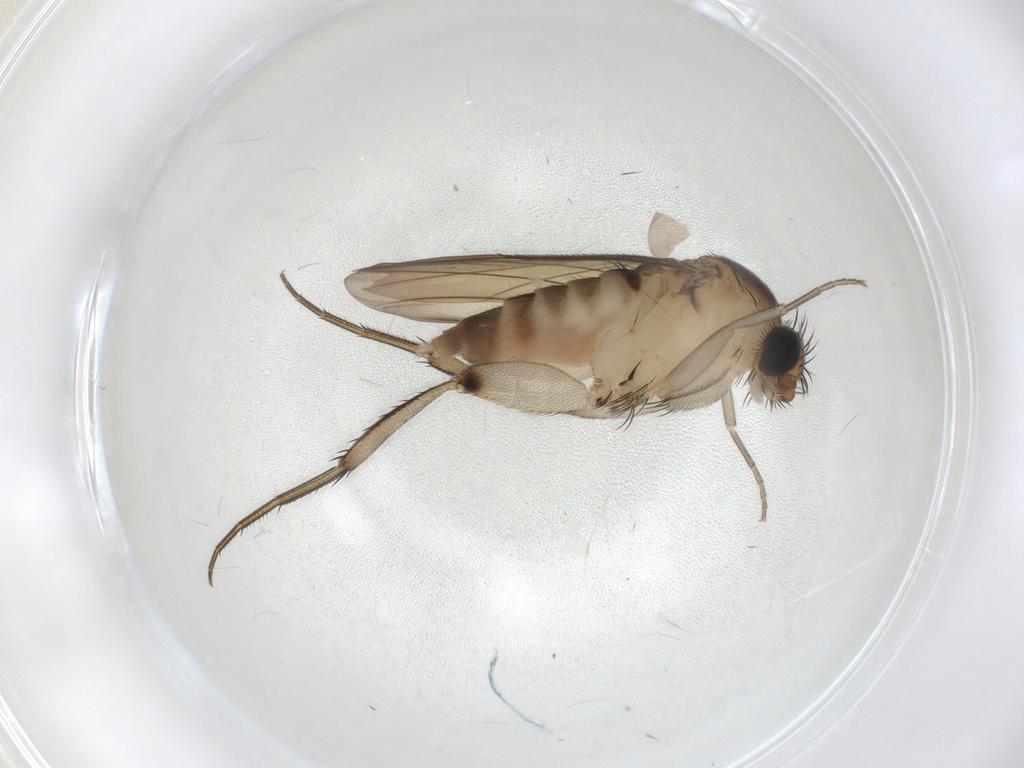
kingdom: Animalia
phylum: Arthropoda
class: Insecta
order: Diptera
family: Phoridae
